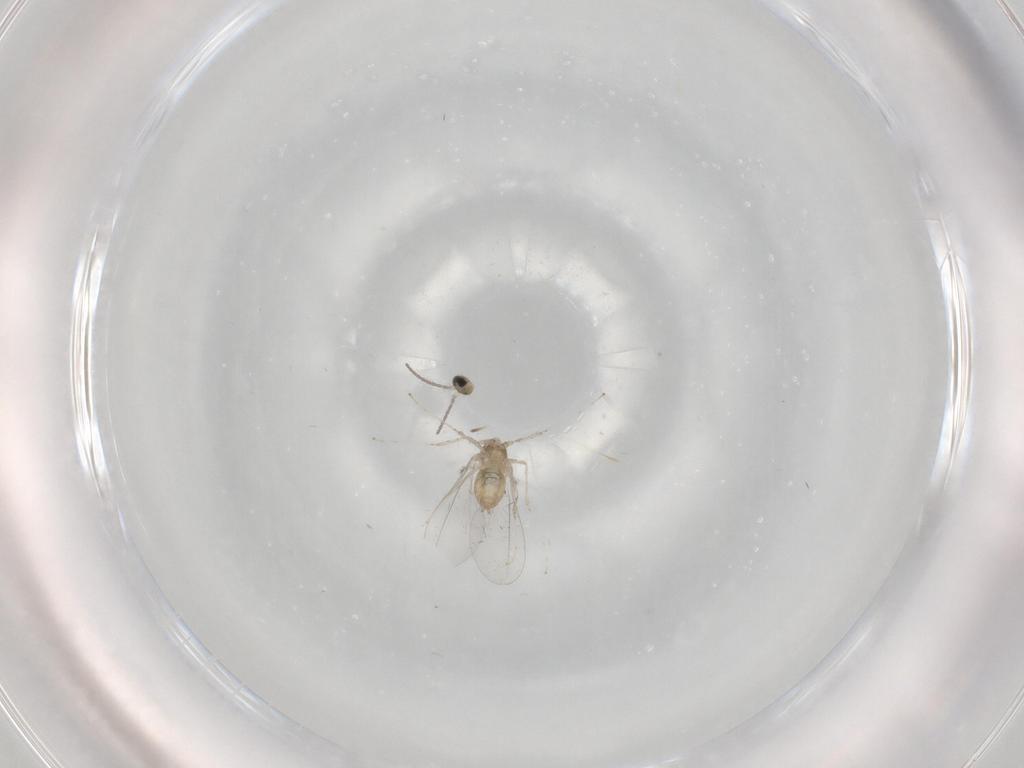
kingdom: Animalia
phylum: Arthropoda
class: Insecta
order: Diptera
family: Cecidomyiidae
